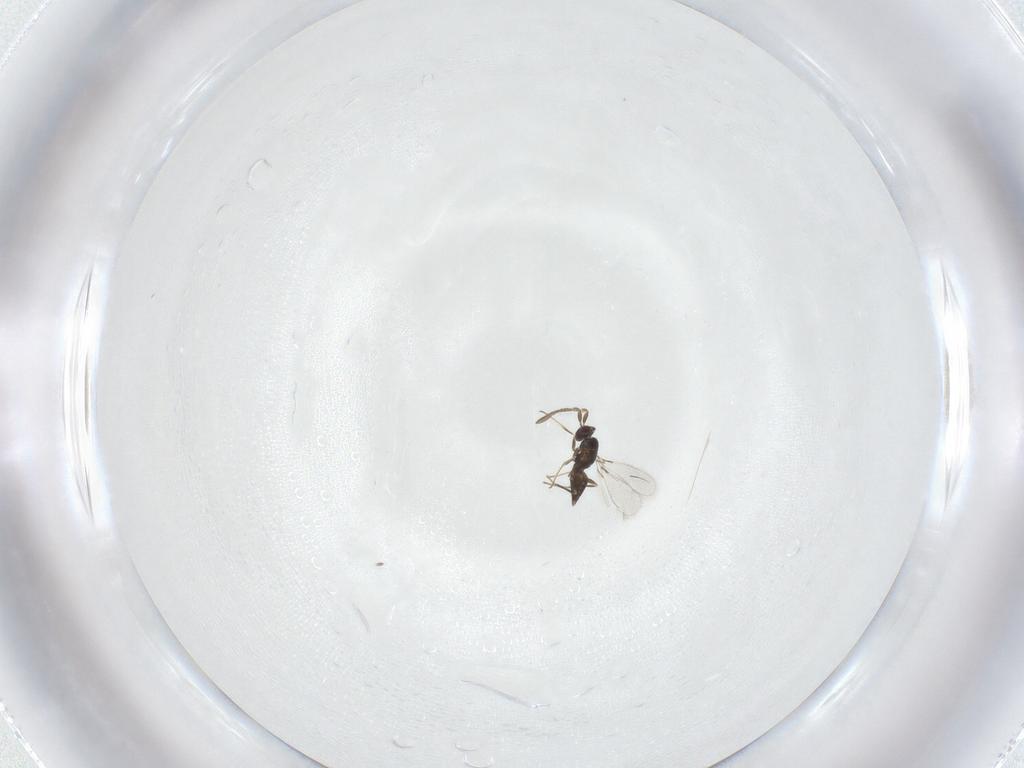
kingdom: Animalia
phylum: Arthropoda
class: Insecta
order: Hymenoptera
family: Mymaridae
